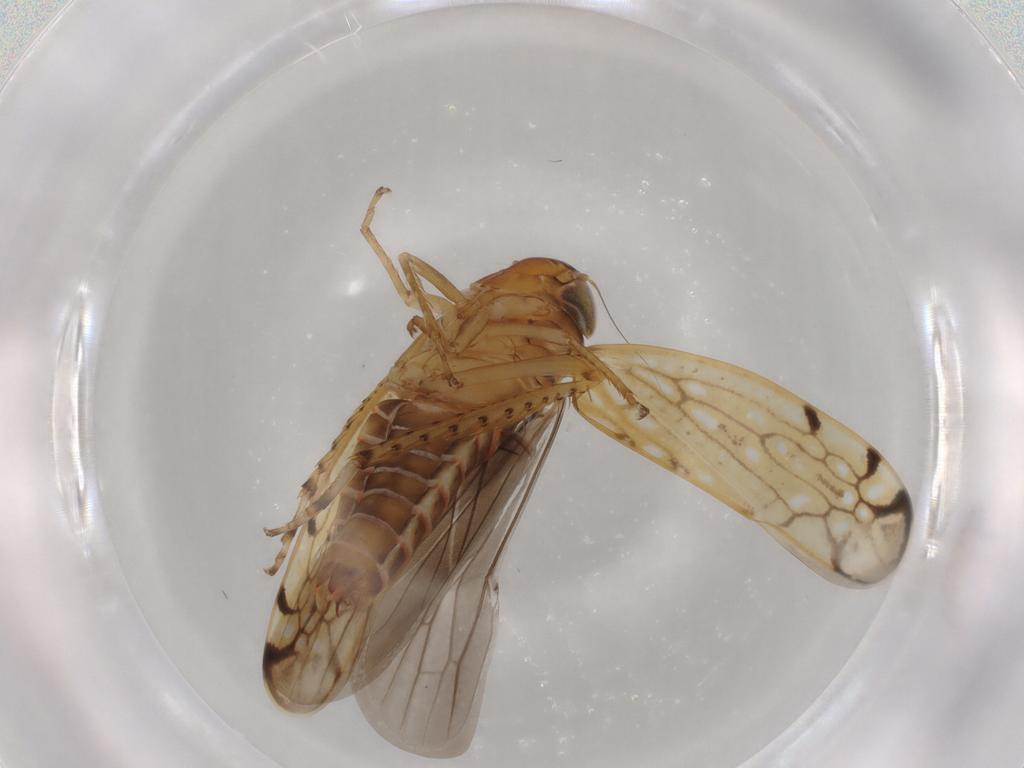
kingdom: Animalia
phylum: Arthropoda
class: Insecta
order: Hemiptera
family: Cicadellidae
